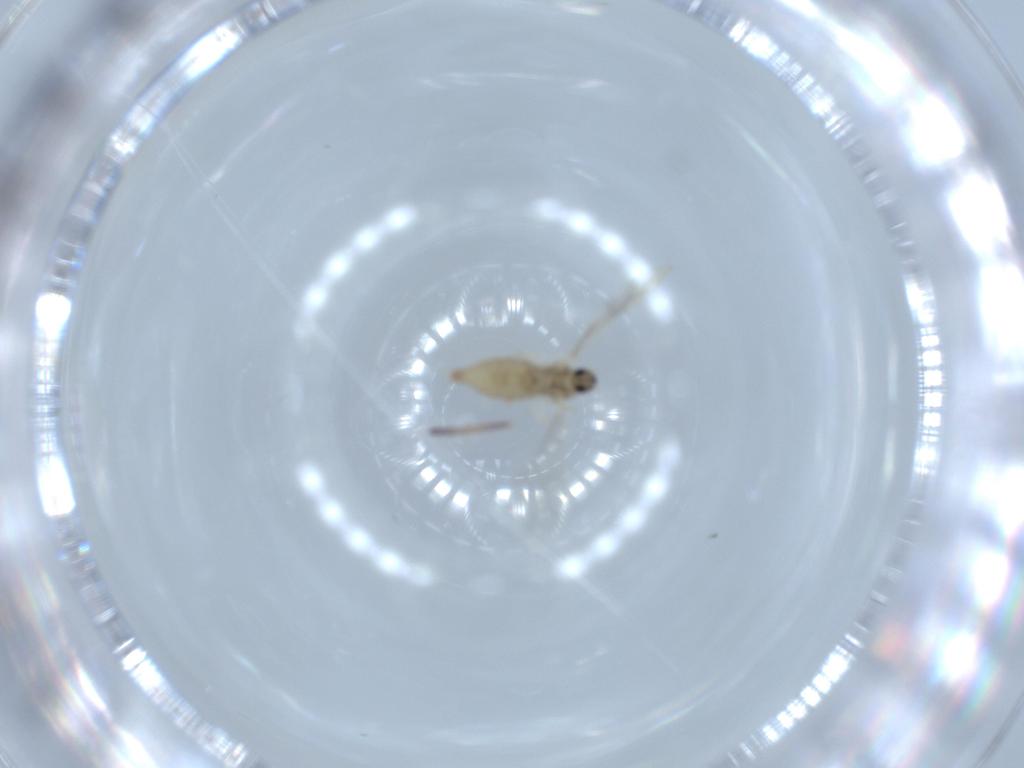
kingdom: Animalia
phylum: Arthropoda
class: Insecta
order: Diptera
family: Cecidomyiidae
